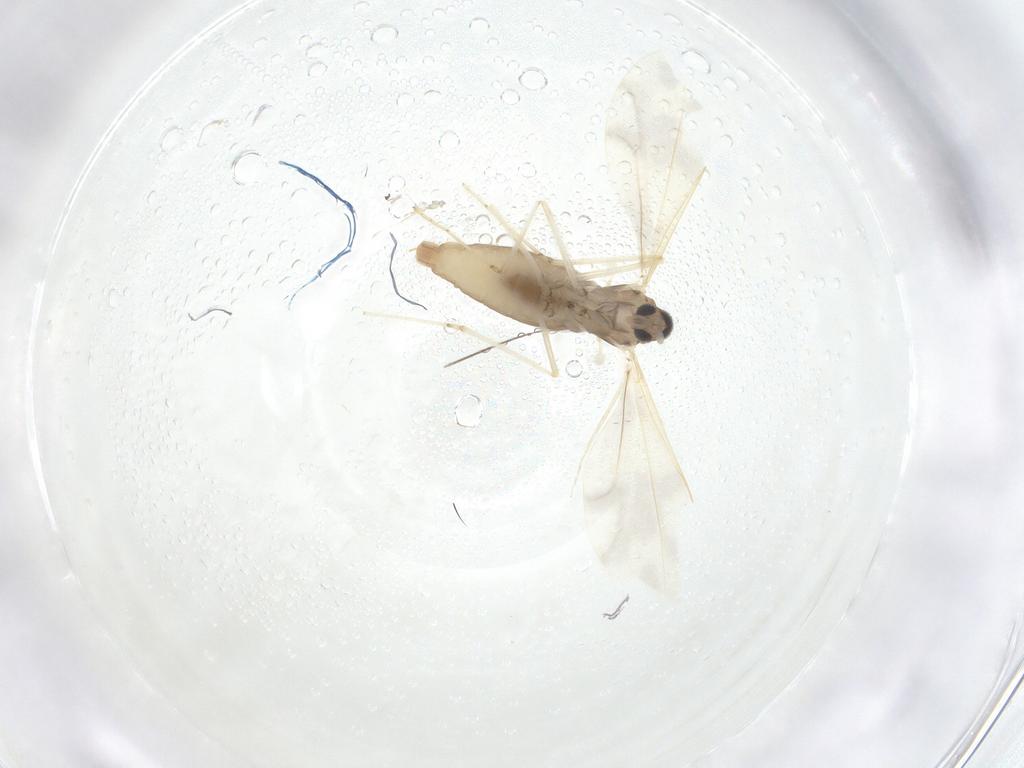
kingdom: Animalia
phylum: Arthropoda
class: Insecta
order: Diptera
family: Cecidomyiidae
